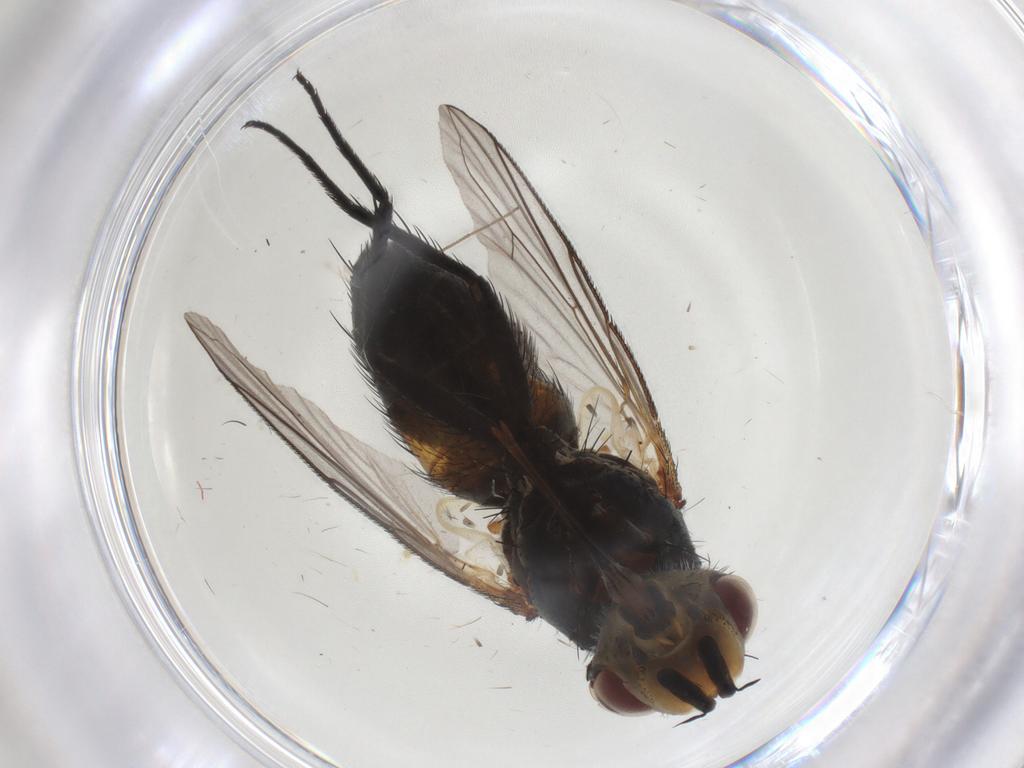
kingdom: Animalia
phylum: Arthropoda
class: Insecta
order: Diptera
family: Tachinidae
